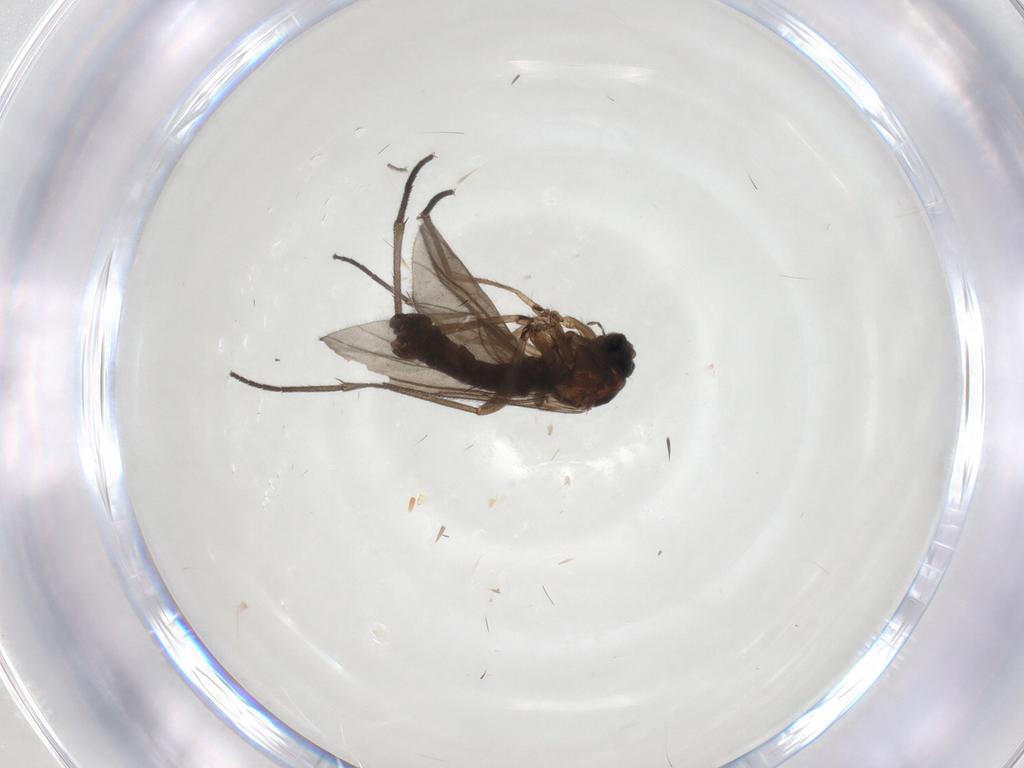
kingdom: Animalia
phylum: Arthropoda
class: Insecta
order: Diptera
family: Sciaridae
